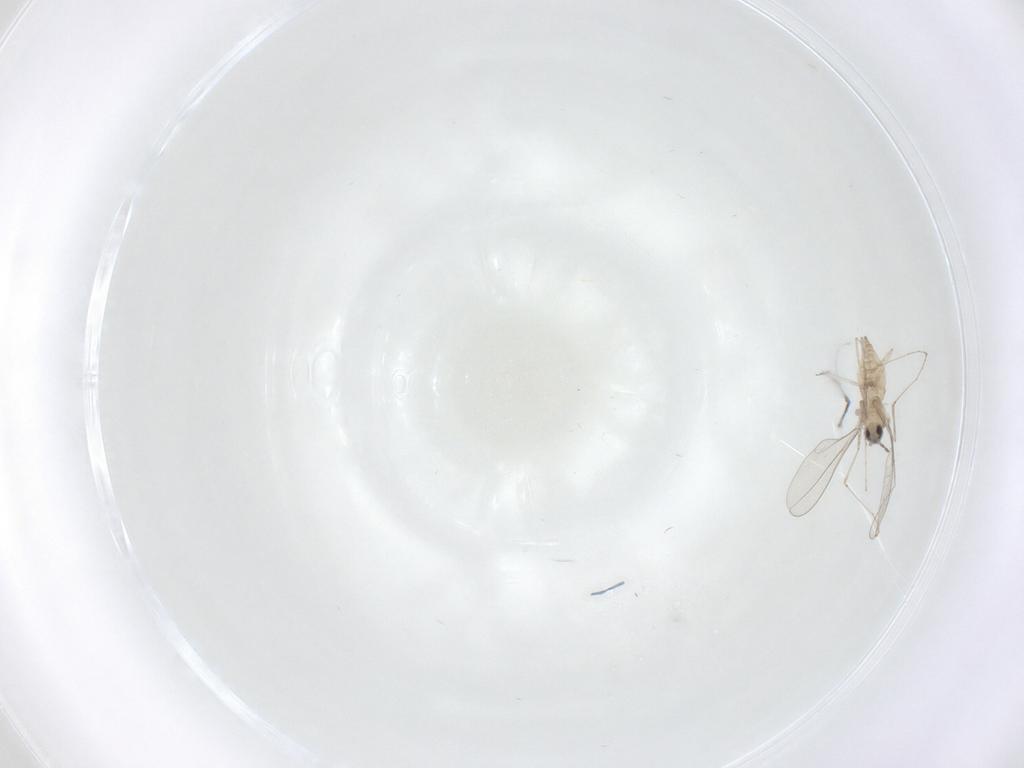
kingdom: Animalia
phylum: Arthropoda
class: Insecta
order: Diptera
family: Cecidomyiidae
